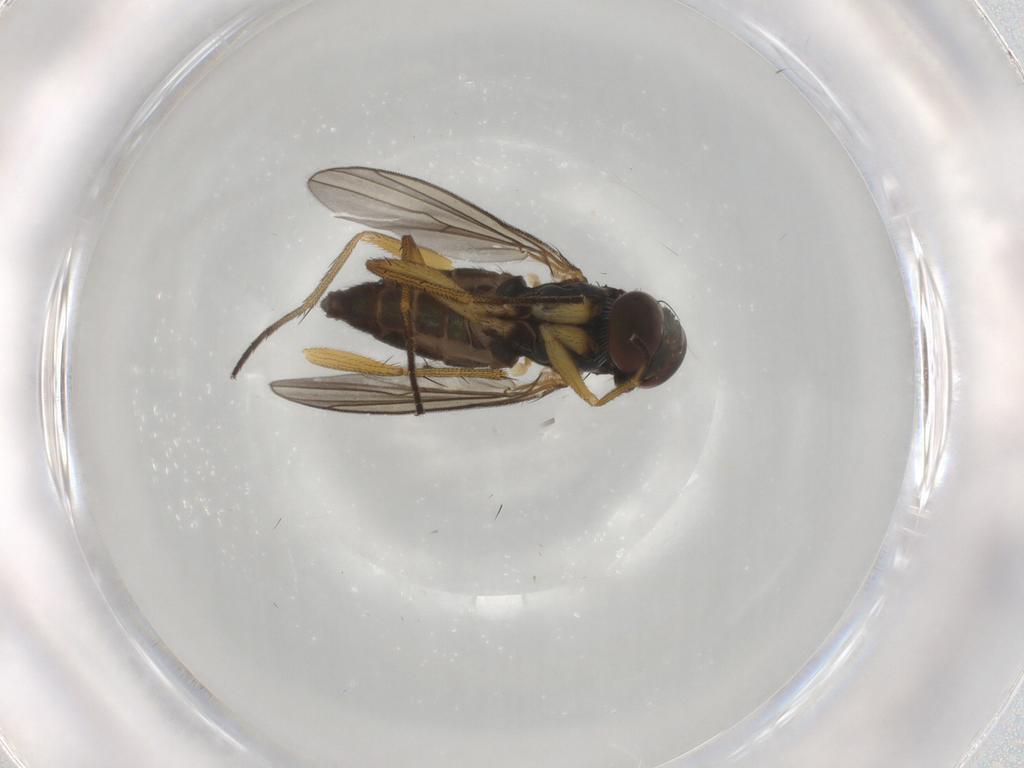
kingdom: Animalia
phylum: Arthropoda
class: Insecta
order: Diptera
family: Dolichopodidae
